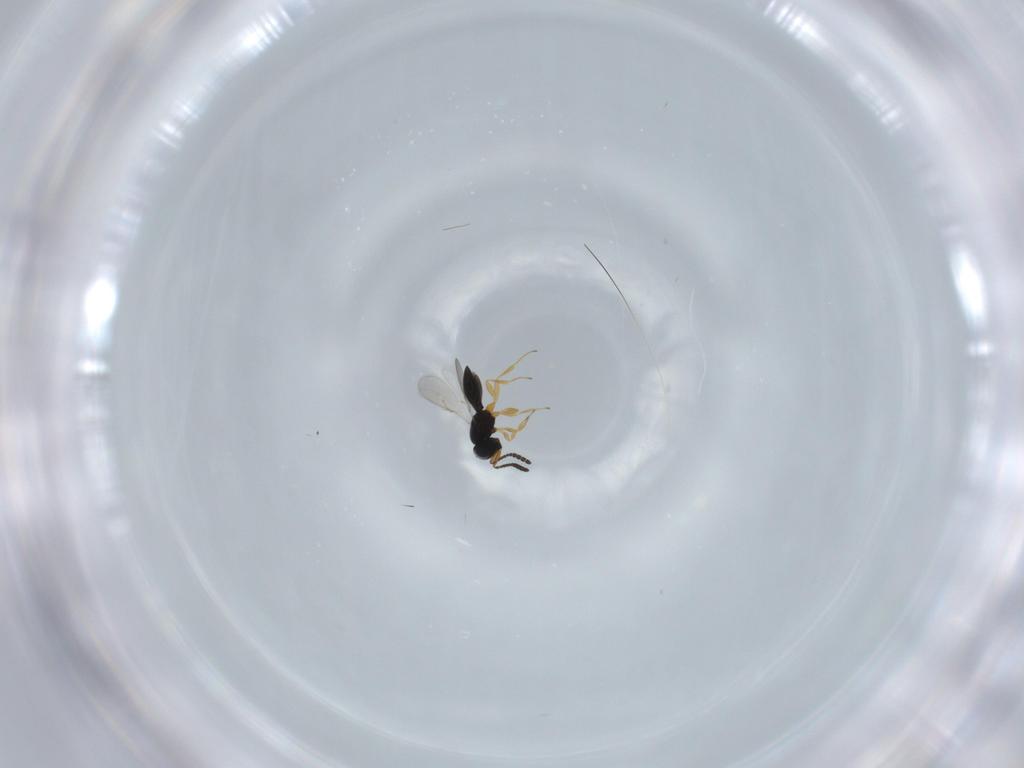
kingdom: Animalia
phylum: Arthropoda
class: Insecta
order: Hymenoptera
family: Diapriidae
